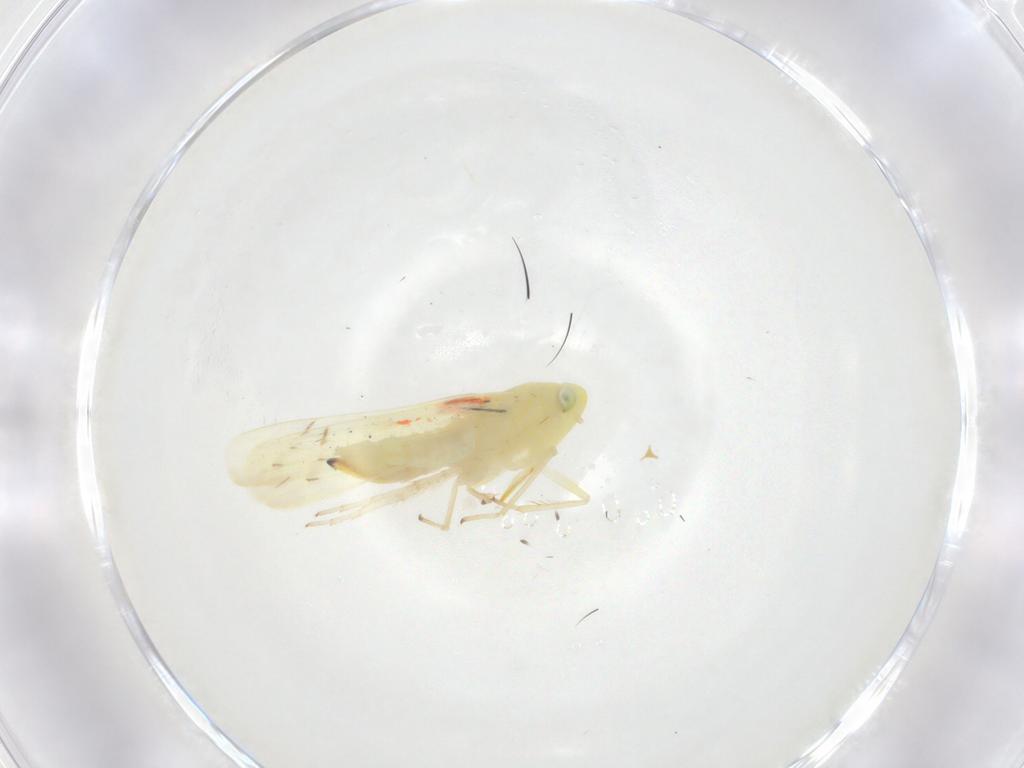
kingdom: Animalia
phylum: Arthropoda
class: Insecta
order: Hemiptera
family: Cicadellidae
